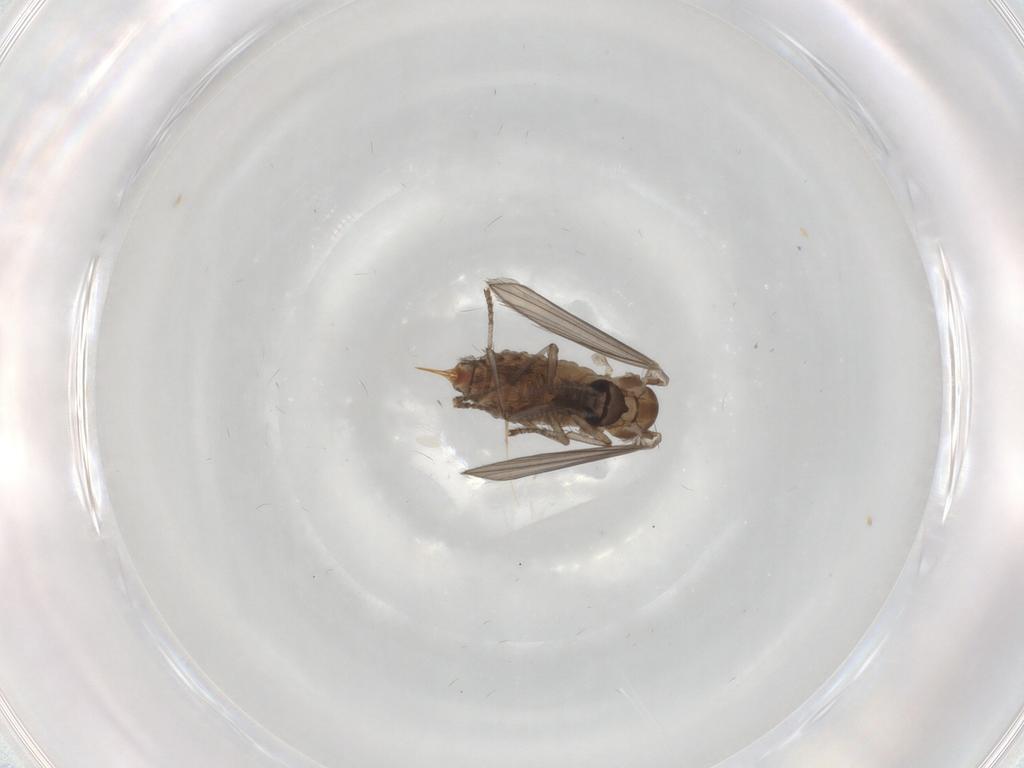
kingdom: Animalia
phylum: Arthropoda
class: Insecta
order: Diptera
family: Psychodidae
